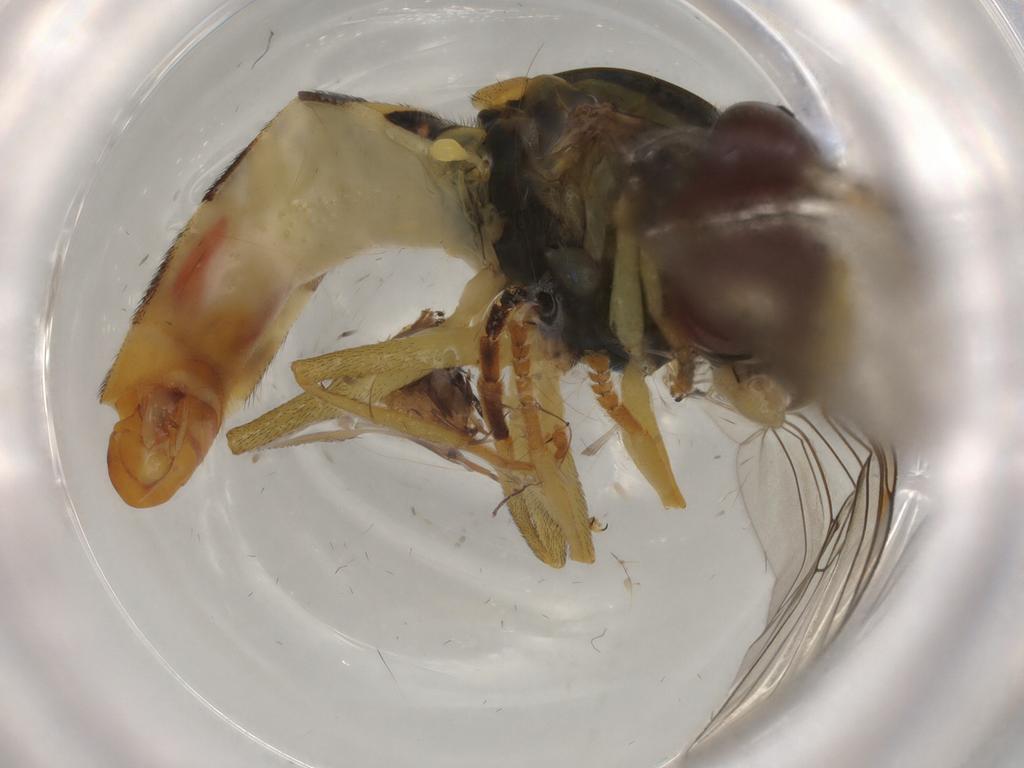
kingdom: Animalia
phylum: Arthropoda
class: Insecta
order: Diptera
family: Syrphidae
